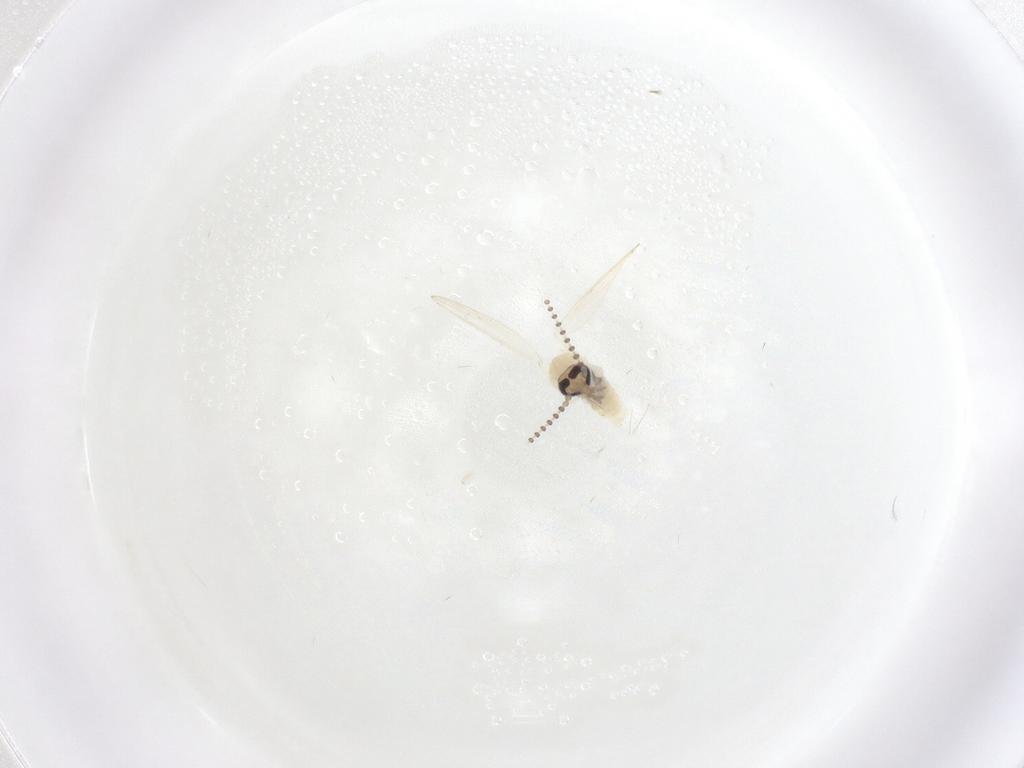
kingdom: Animalia
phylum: Arthropoda
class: Insecta
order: Diptera
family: Psychodidae
